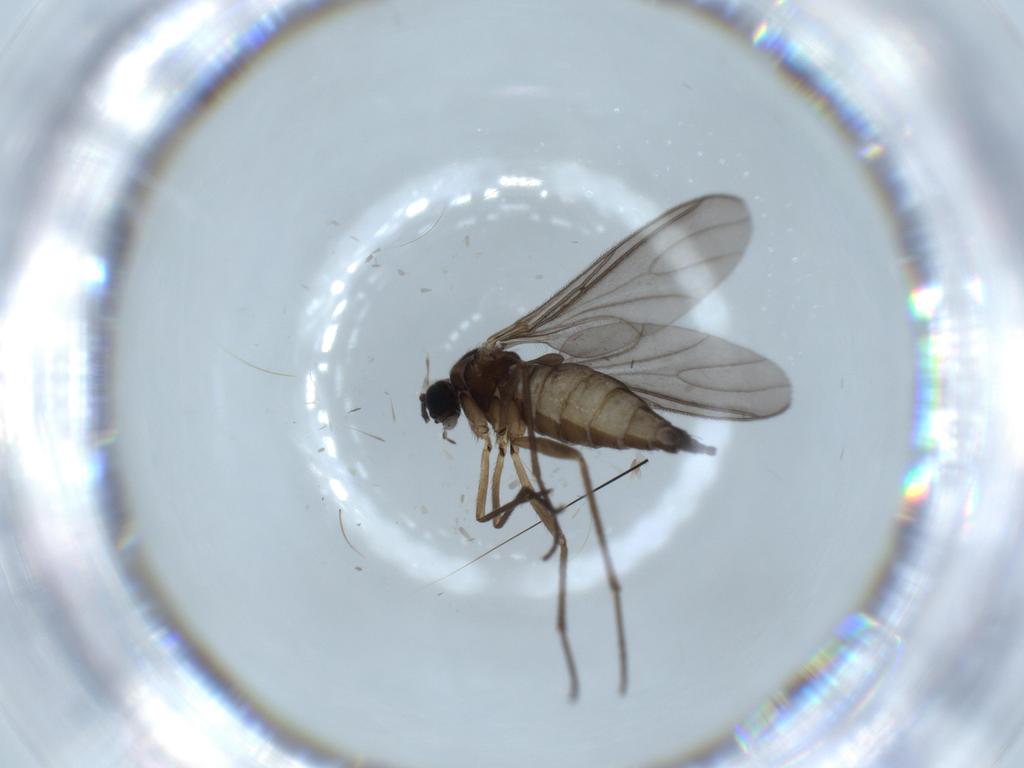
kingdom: Animalia
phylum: Arthropoda
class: Insecta
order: Diptera
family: Sciaridae
